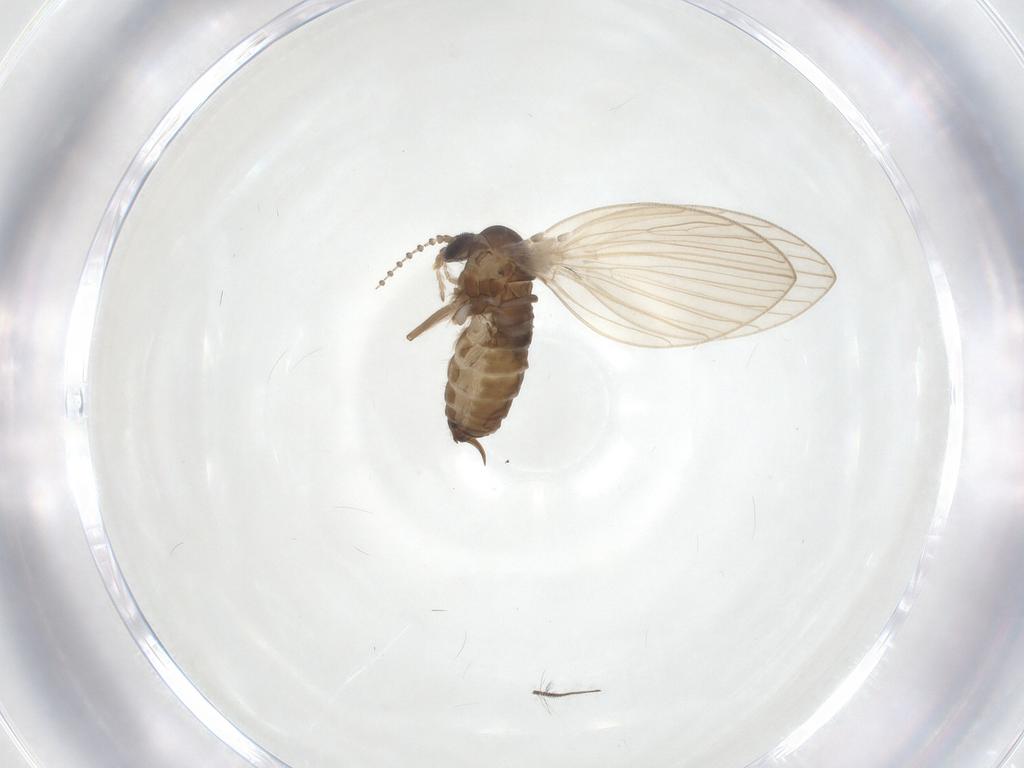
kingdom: Animalia
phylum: Arthropoda
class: Insecta
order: Diptera
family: Psychodidae
